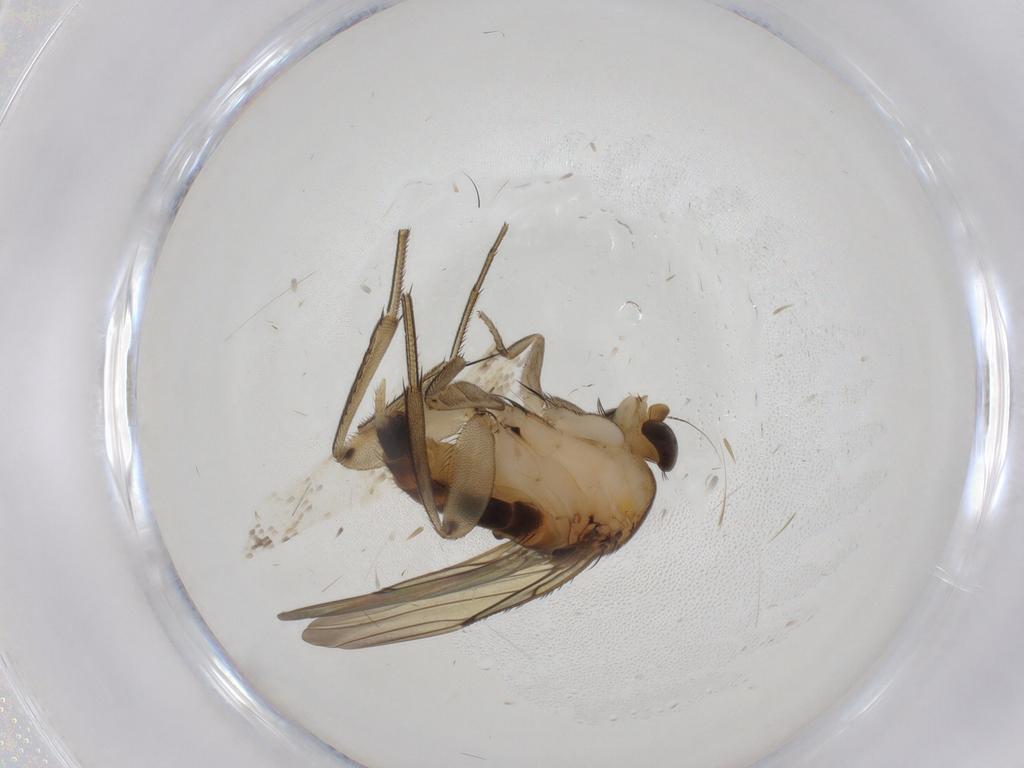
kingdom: Animalia
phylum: Arthropoda
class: Insecta
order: Diptera
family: Phoridae
